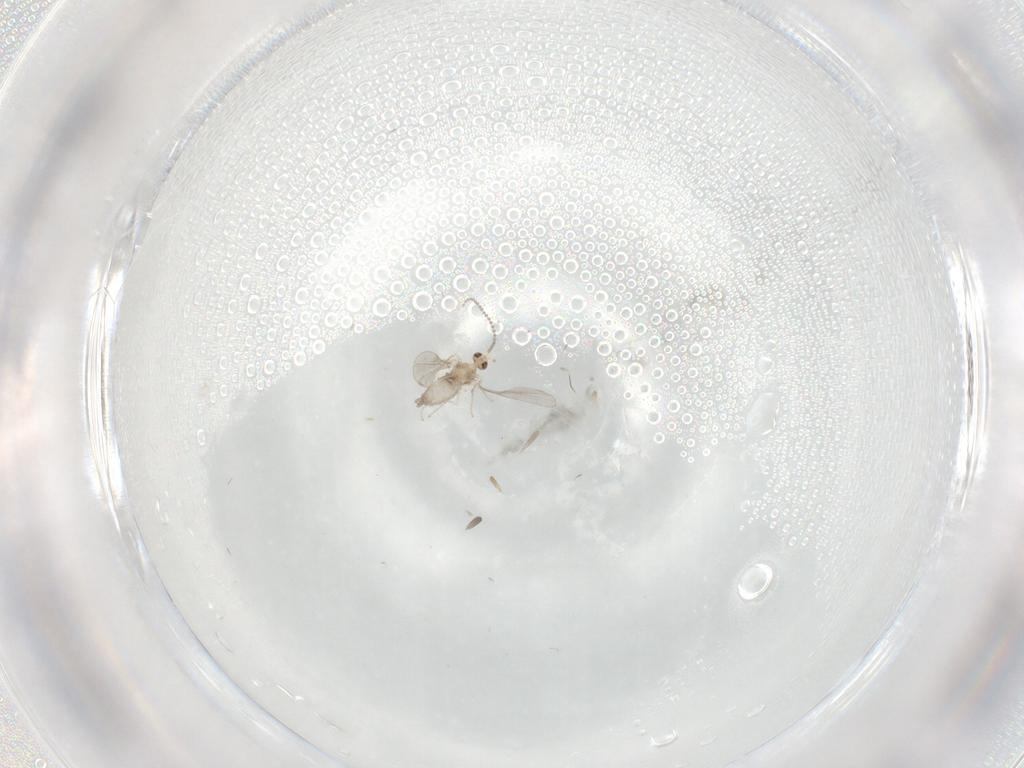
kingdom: Animalia
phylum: Arthropoda
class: Insecta
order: Diptera
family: Cecidomyiidae
